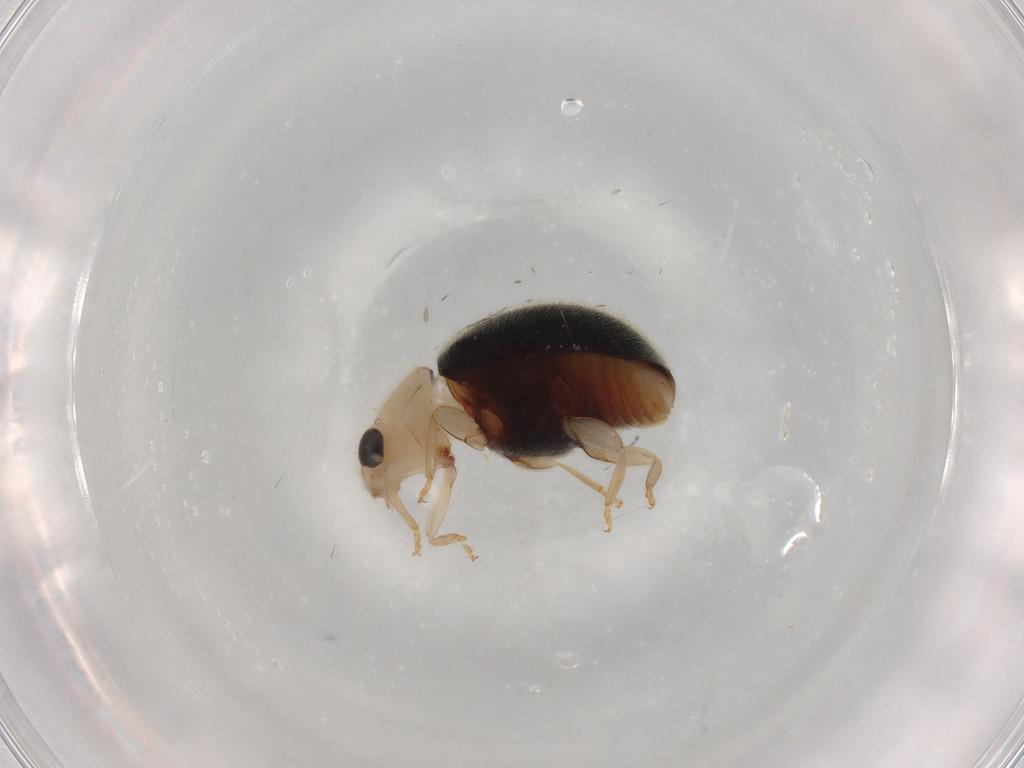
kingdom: Animalia
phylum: Arthropoda
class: Insecta
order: Coleoptera
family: Coccinellidae
